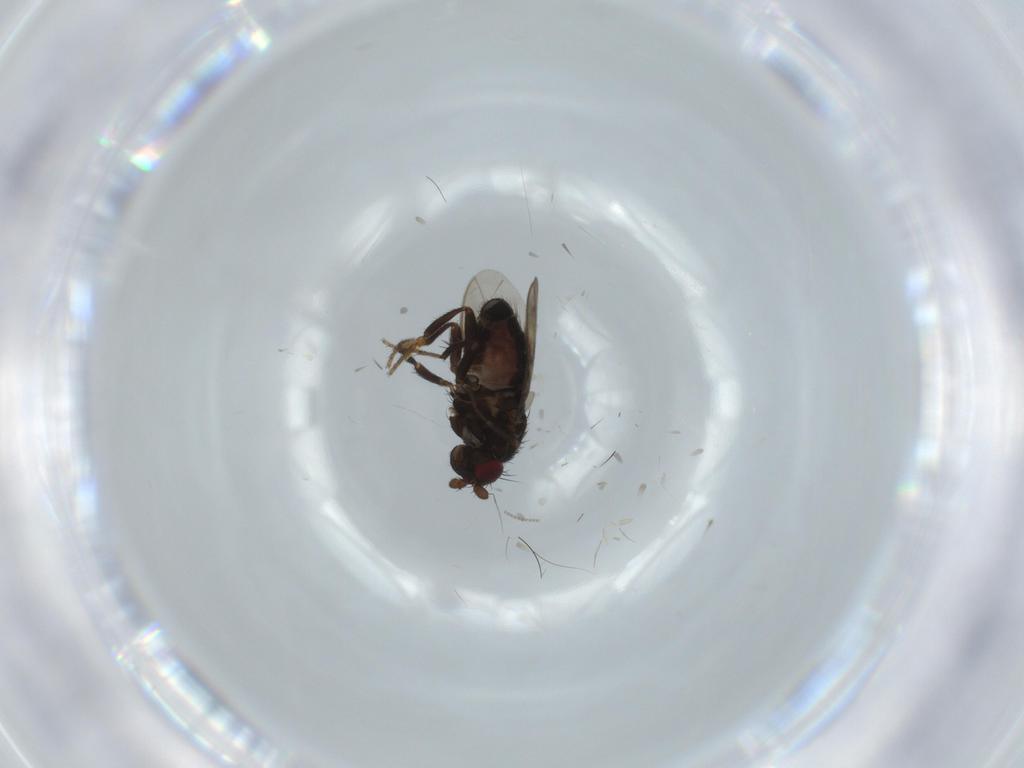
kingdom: Animalia
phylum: Arthropoda
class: Insecta
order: Diptera
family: Sphaeroceridae
